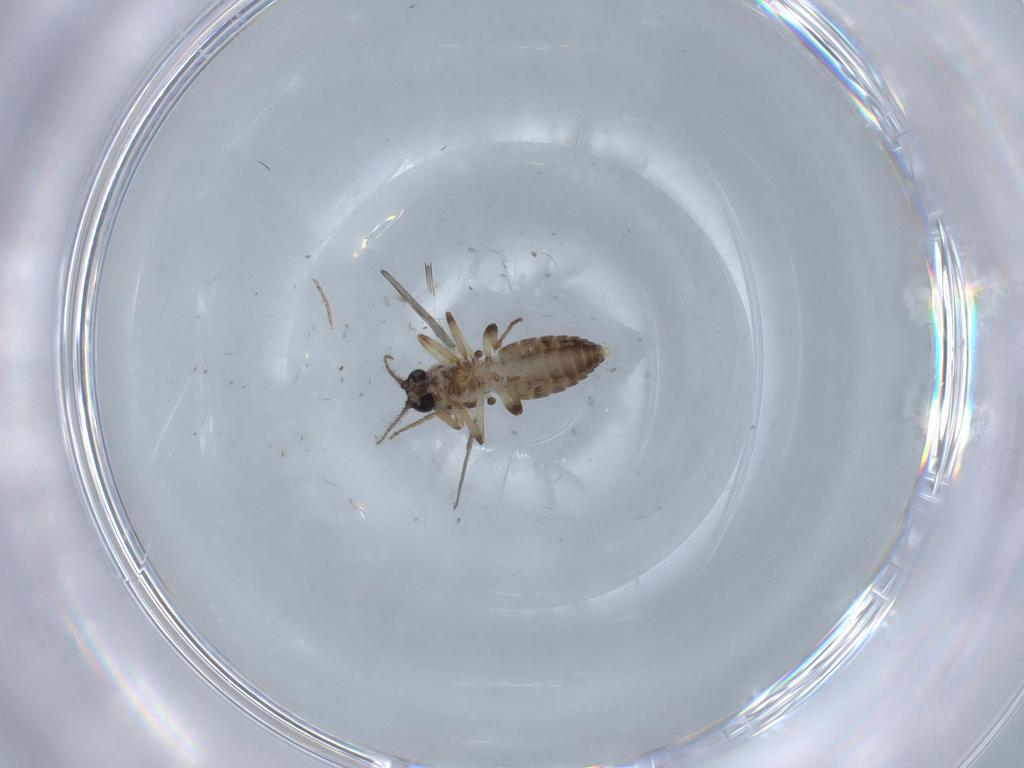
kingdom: Animalia
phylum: Arthropoda
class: Insecta
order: Diptera
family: Ceratopogonidae
